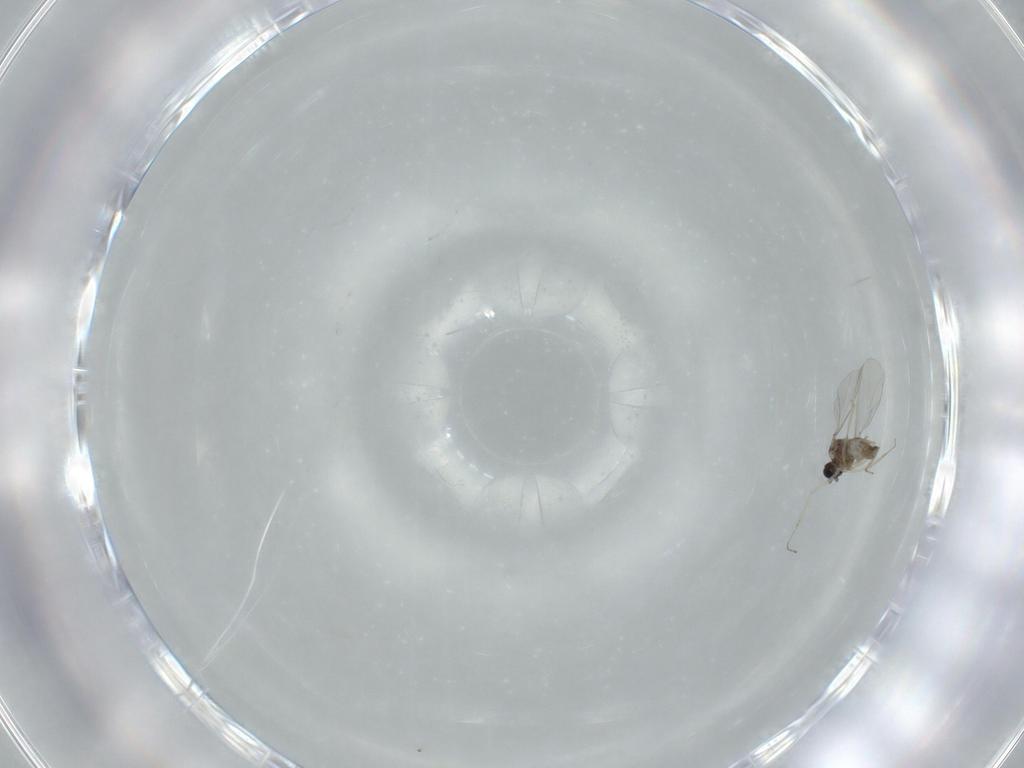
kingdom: Animalia
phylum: Arthropoda
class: Insecta
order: Diptera
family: Cecidomyiidae
